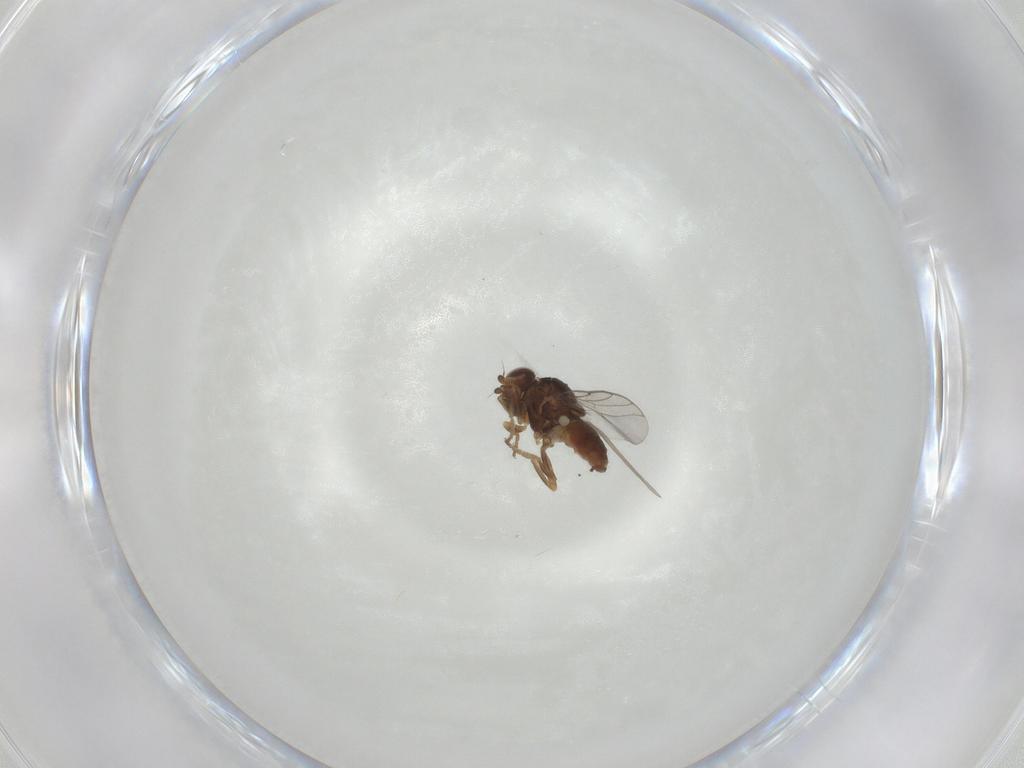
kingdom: Animalia
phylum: Arthropoda
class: Insecta
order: Diptera
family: Chloropidae
